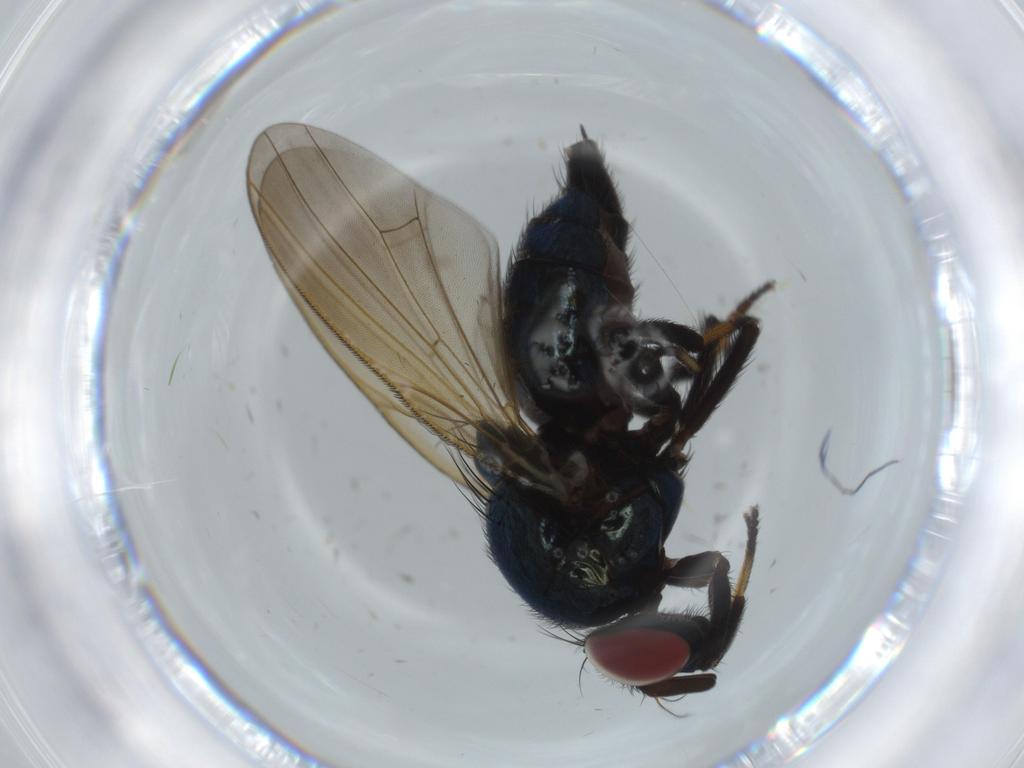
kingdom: Animalia
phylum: Arthropoda
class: Insecta
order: Diptera
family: Lonchaeidae
